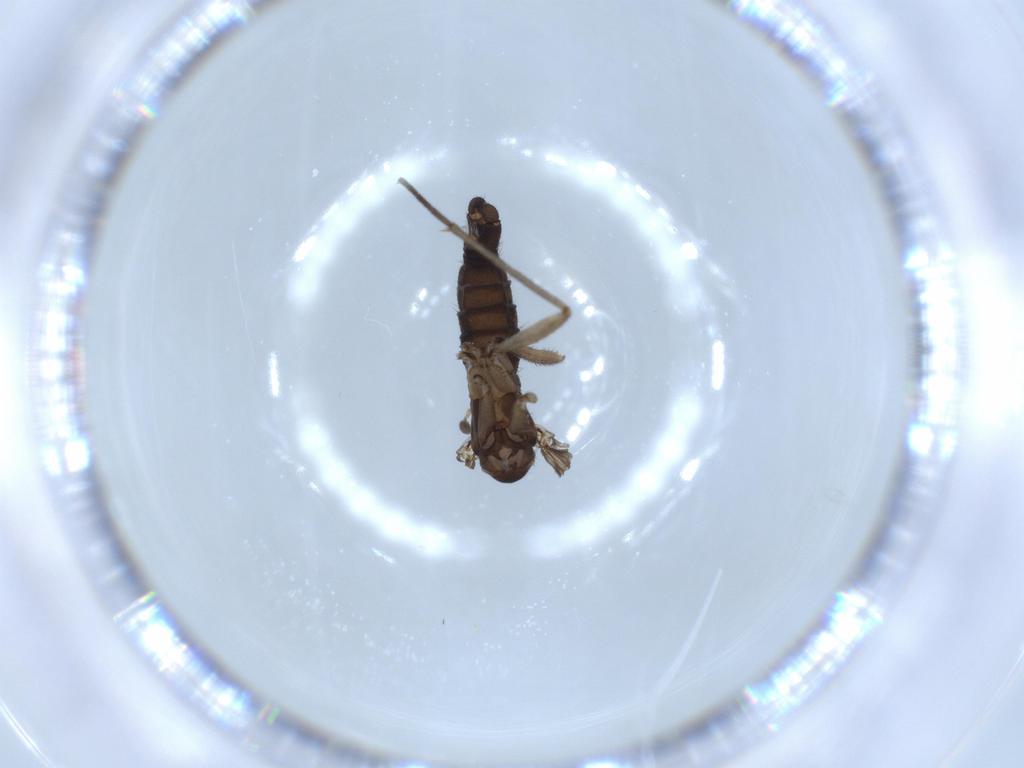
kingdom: Animalia
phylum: Arthropoda
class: Insecta
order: Diptera
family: Sciaridae
